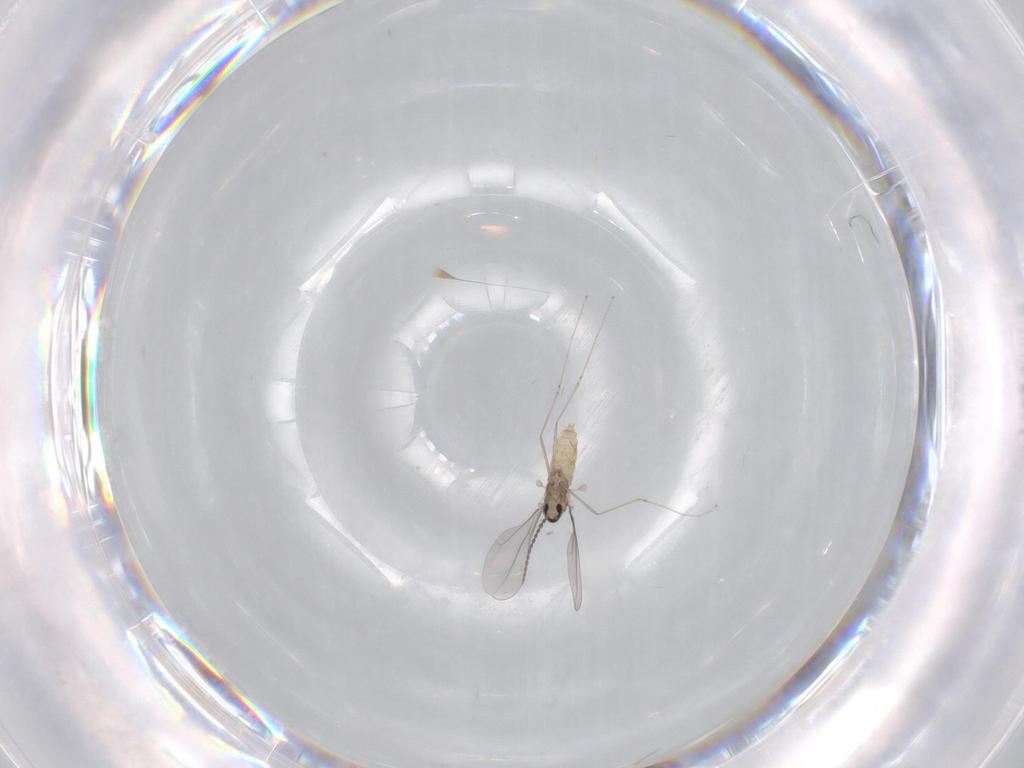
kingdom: Animalia
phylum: Arthropoda
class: Insecta
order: Diptera
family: Cecidomyiidae
